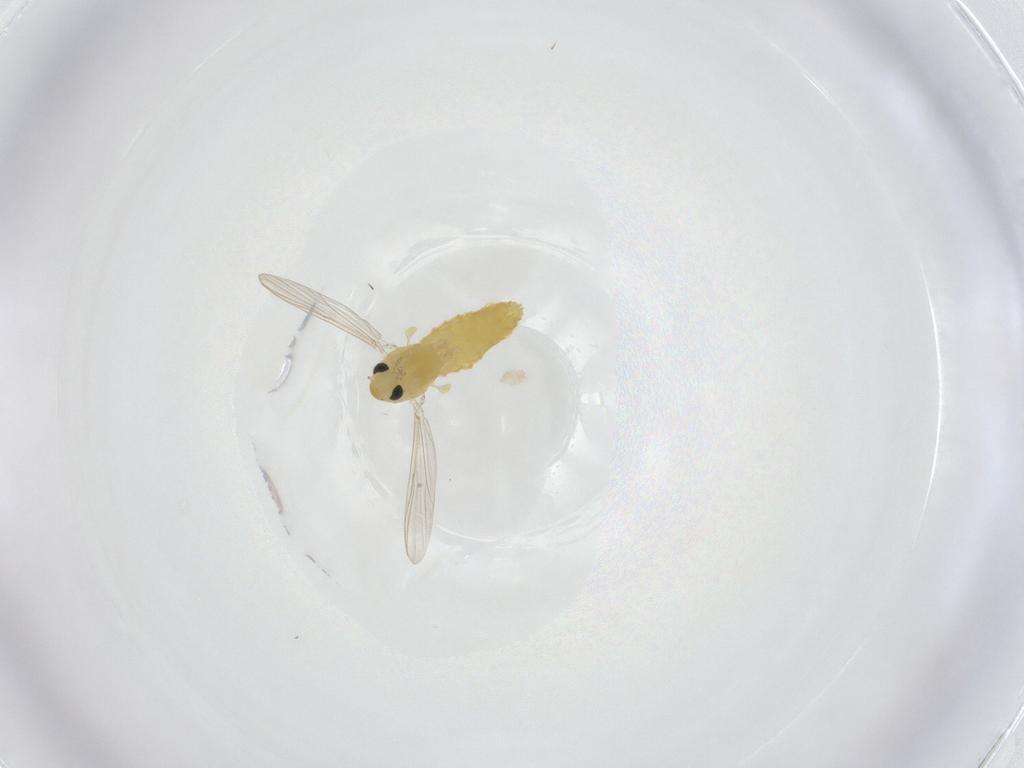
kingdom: Animalia
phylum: Arthropoda
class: Insecta
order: Diptera
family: Chironomidae
